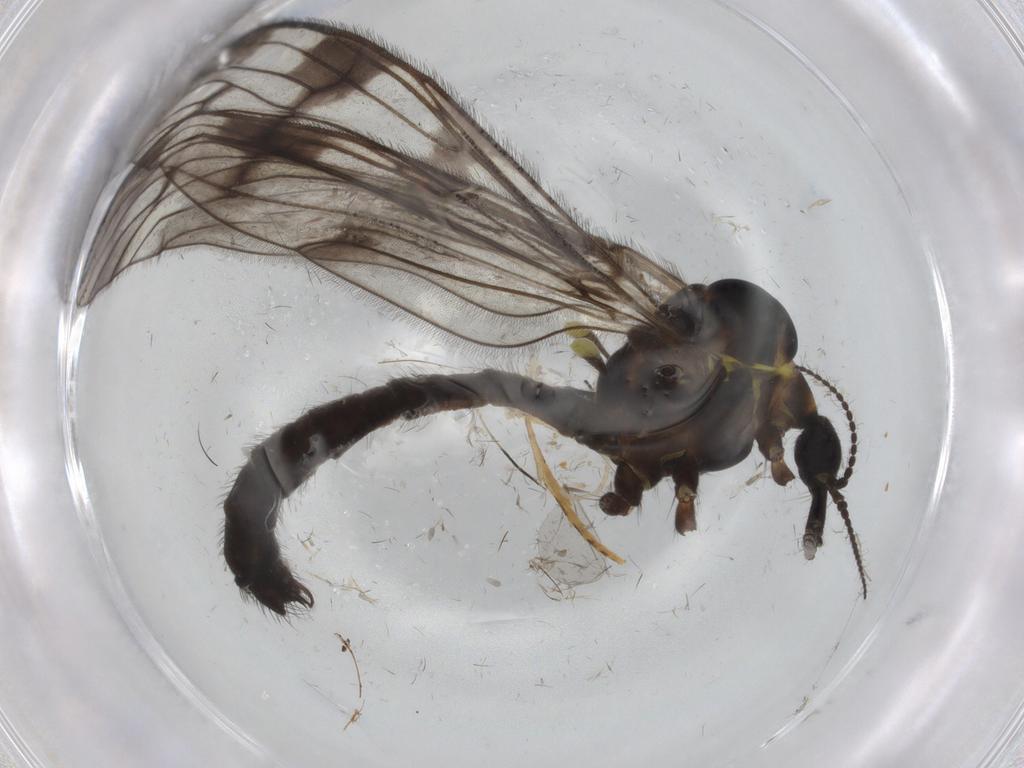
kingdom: Animalia
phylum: Arthropoda
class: Insecta
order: Diptera
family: Limoniidae
